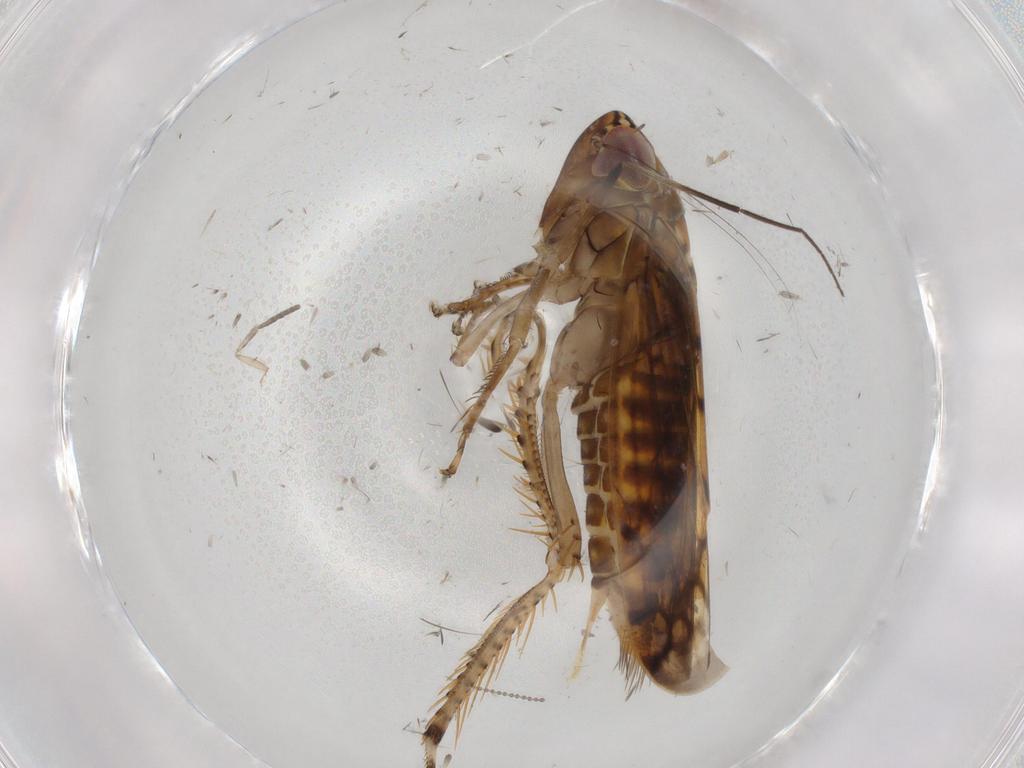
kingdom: Animalia
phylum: Arthropoda
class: Insecta
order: Hemiptera
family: Cicadellidae
